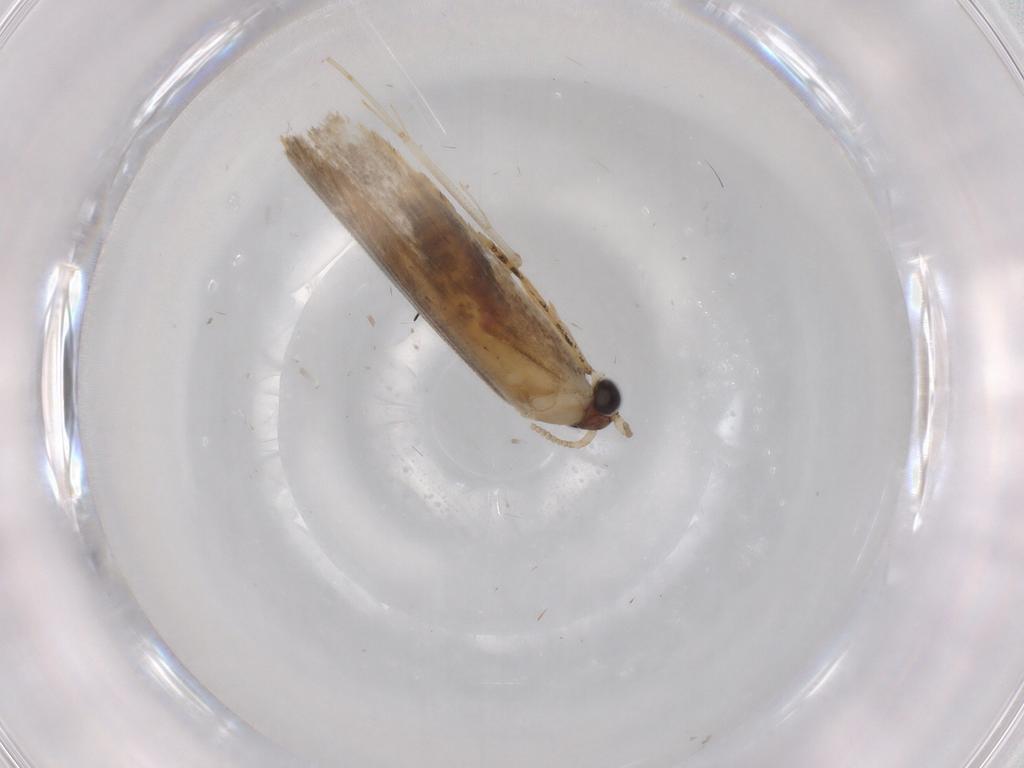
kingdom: Animalia
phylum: Arthropoda
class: Insecta
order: Lepidoptera
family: Tineidae
